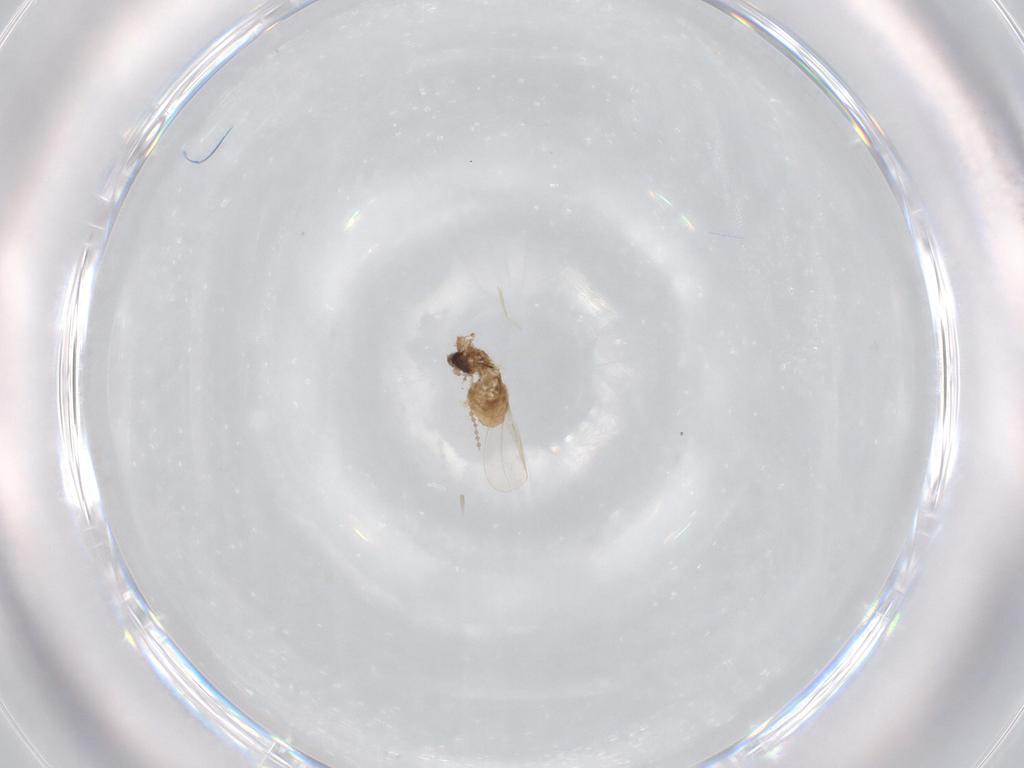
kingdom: Animalia
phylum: Arthropoda
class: Insecta
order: Diptera
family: Cecidomyiidae
